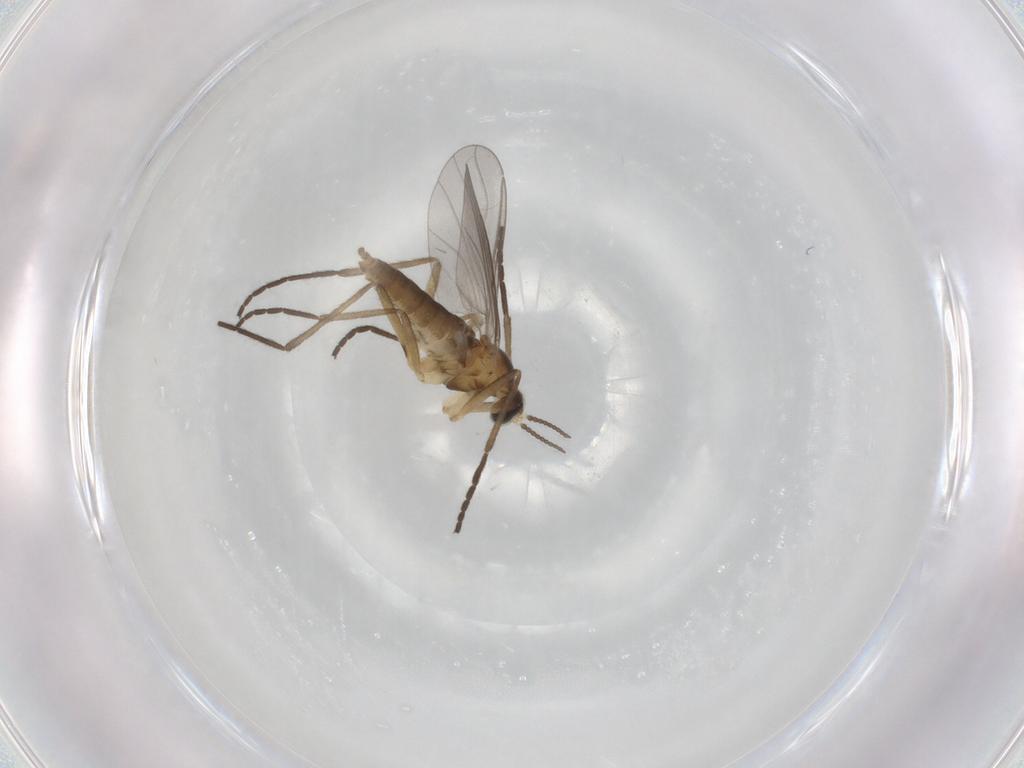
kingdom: Animalia
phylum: Arthropoda
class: Insecta
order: Diptera
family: Cecidomyiidae
